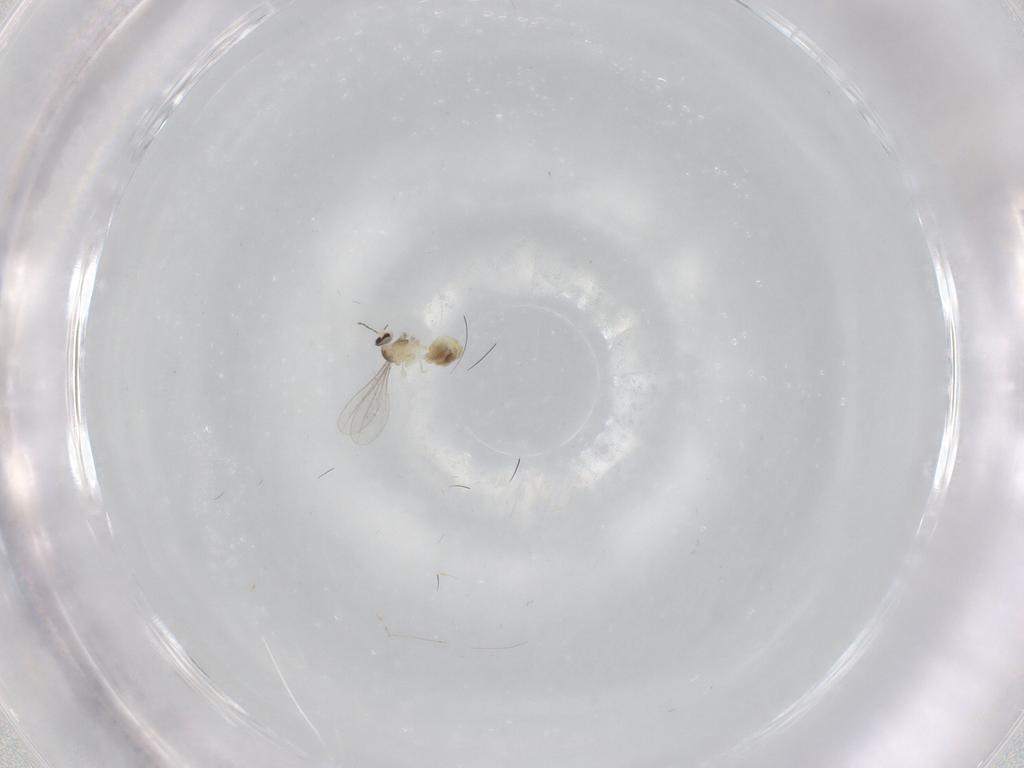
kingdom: Animalia
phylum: Arthropoda
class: Insecta
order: Diptera
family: Cecidomyiidae
